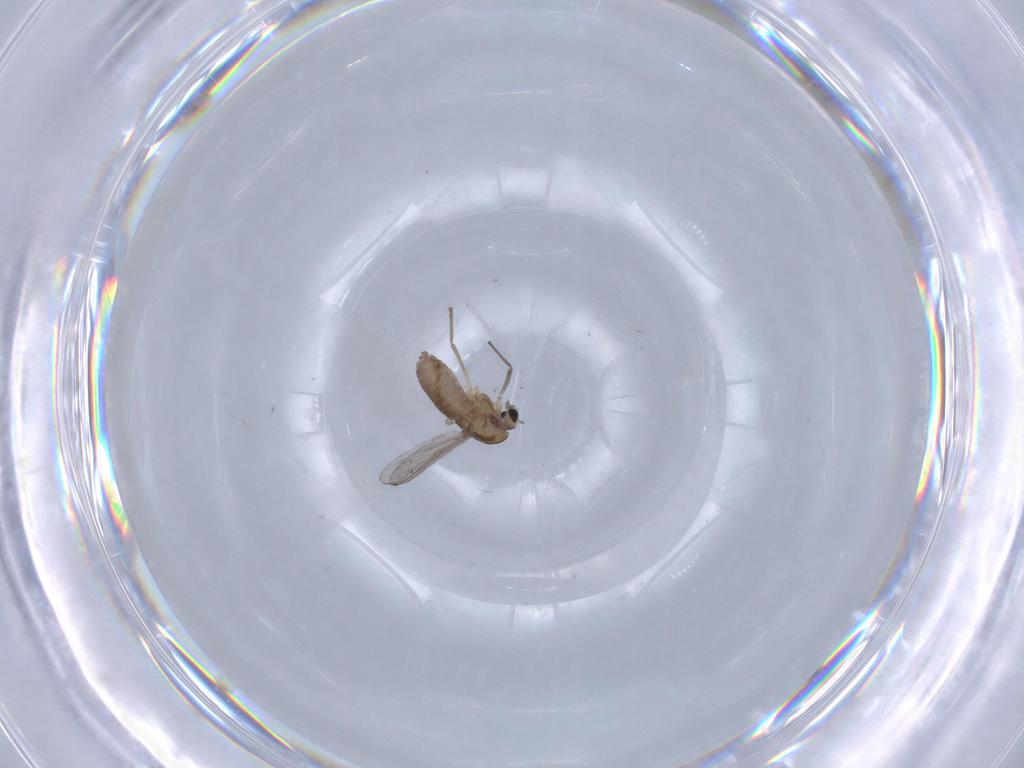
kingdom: Animalia
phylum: Arthropoda
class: Insecta
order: Diptera
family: Chironomidae
